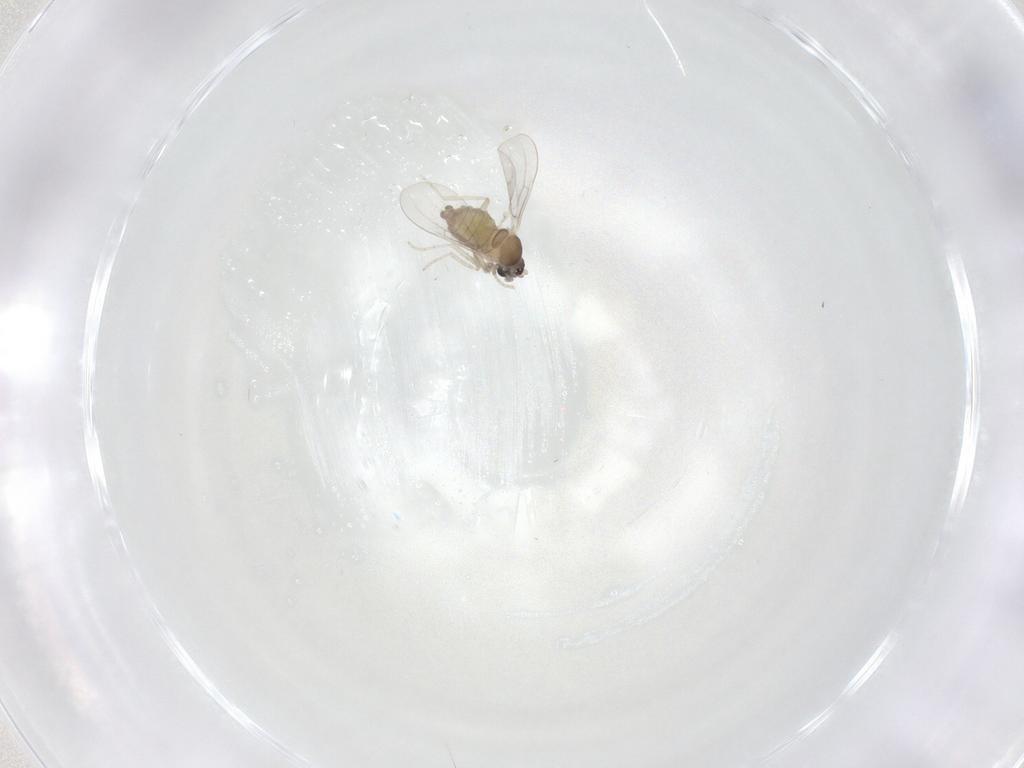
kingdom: Animalia
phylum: Arthropoda
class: Insecta
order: Diptera
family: Cecidomyiidae
